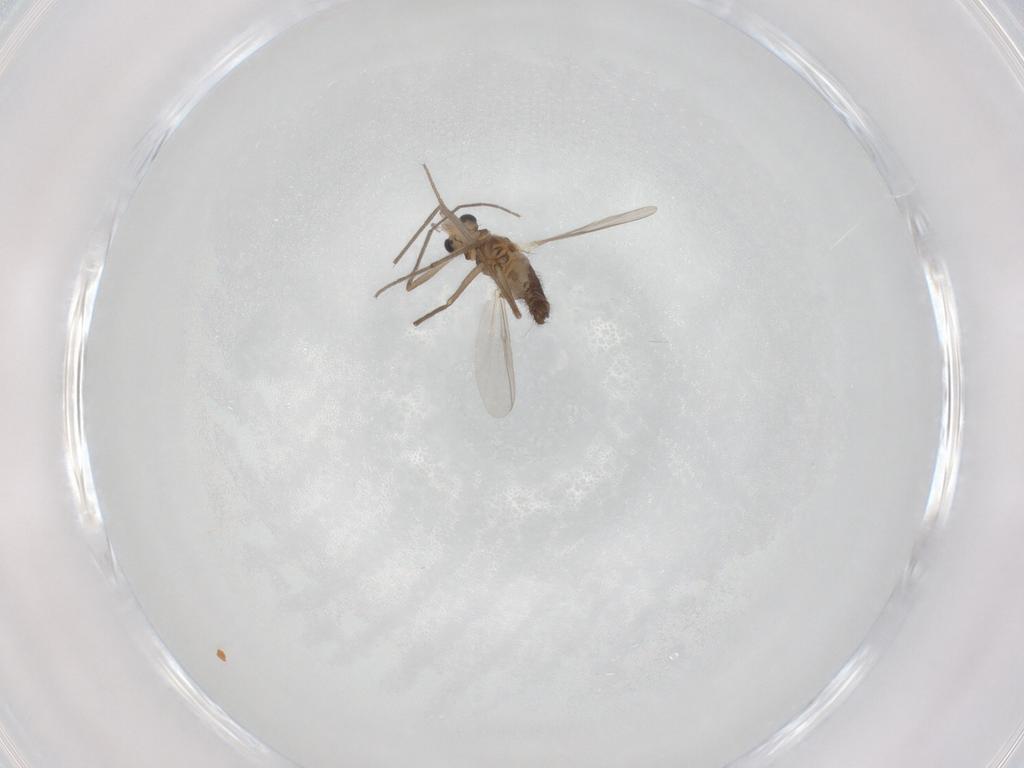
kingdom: Animalia
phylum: Arthropoda
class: Insecta
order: Diptera
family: Chironomidae
